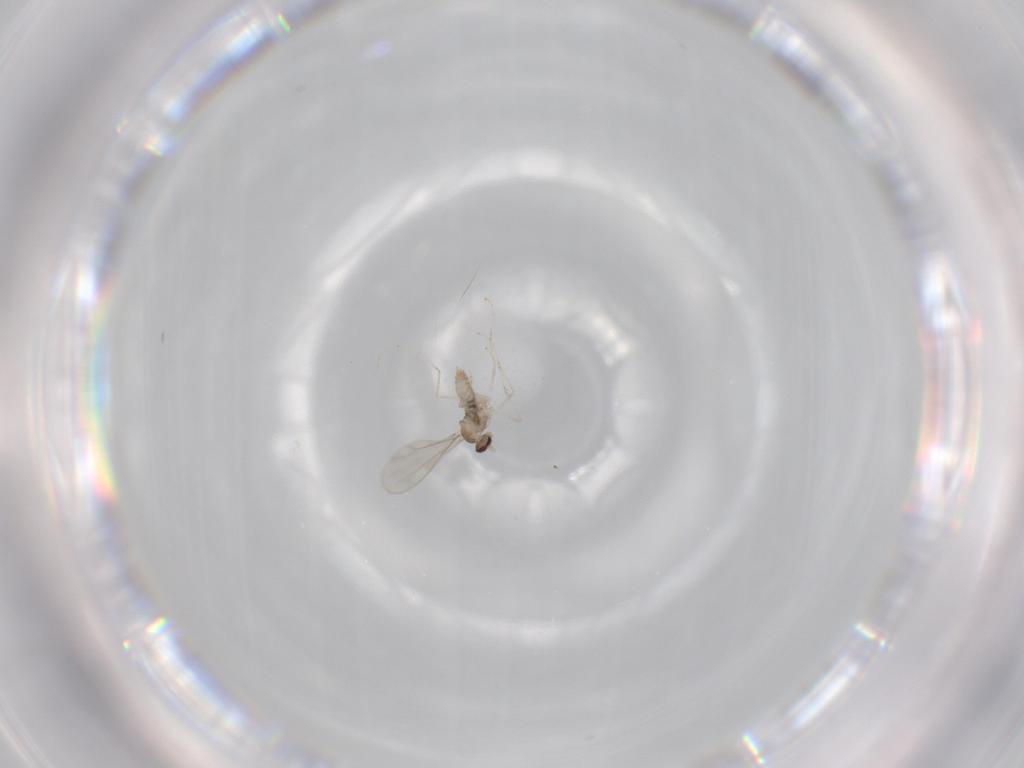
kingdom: Animalia
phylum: Arthropoda
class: Insecta
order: Diptera
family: Cecidomyiidae
